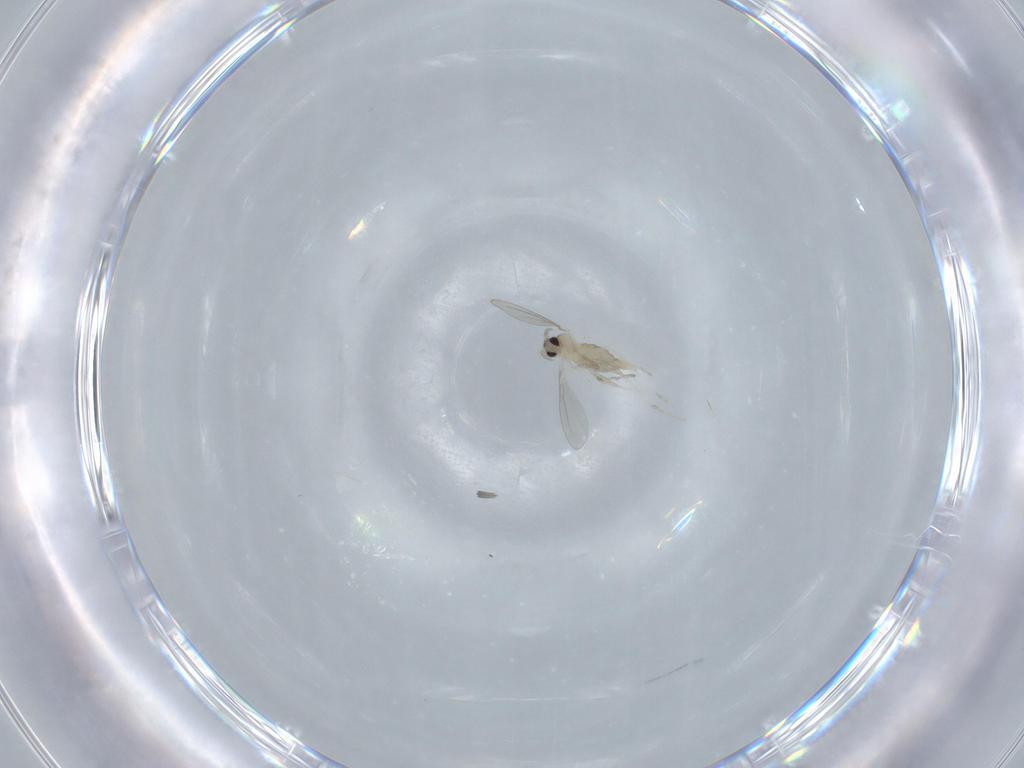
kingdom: Animalia
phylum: Arthropoda
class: Insecta
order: Diptera
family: Cecidomyiidae
